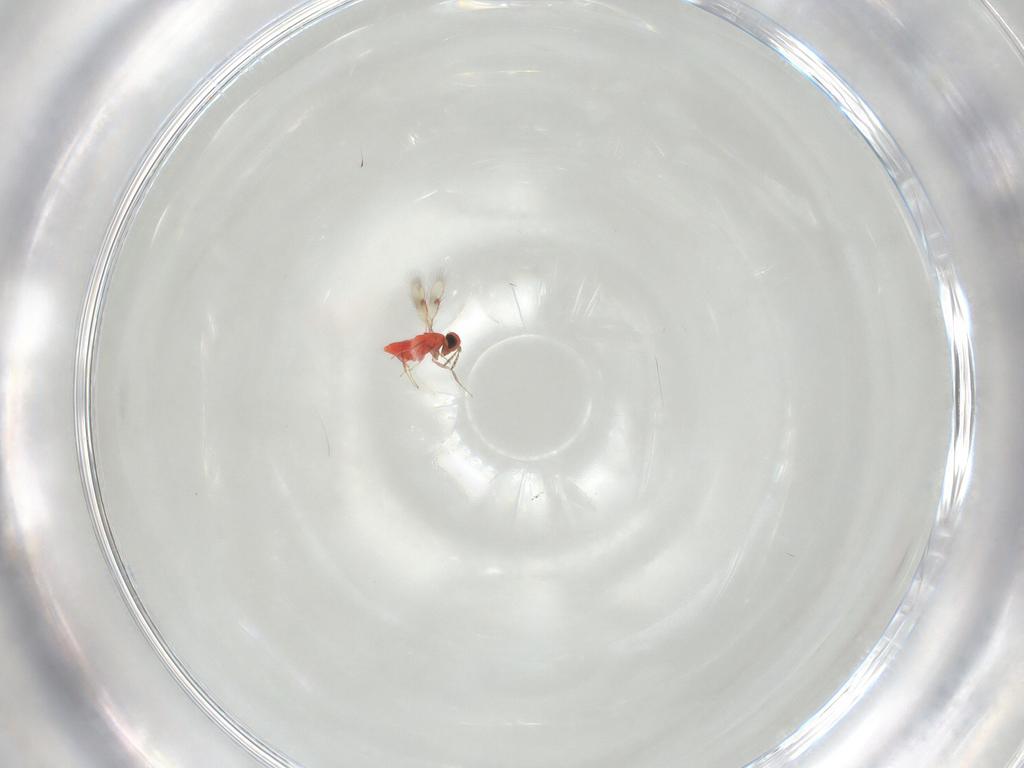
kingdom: Animalia
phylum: Arthropoda
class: Insecta
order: Hymenoptera
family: Trichogrammatidae
